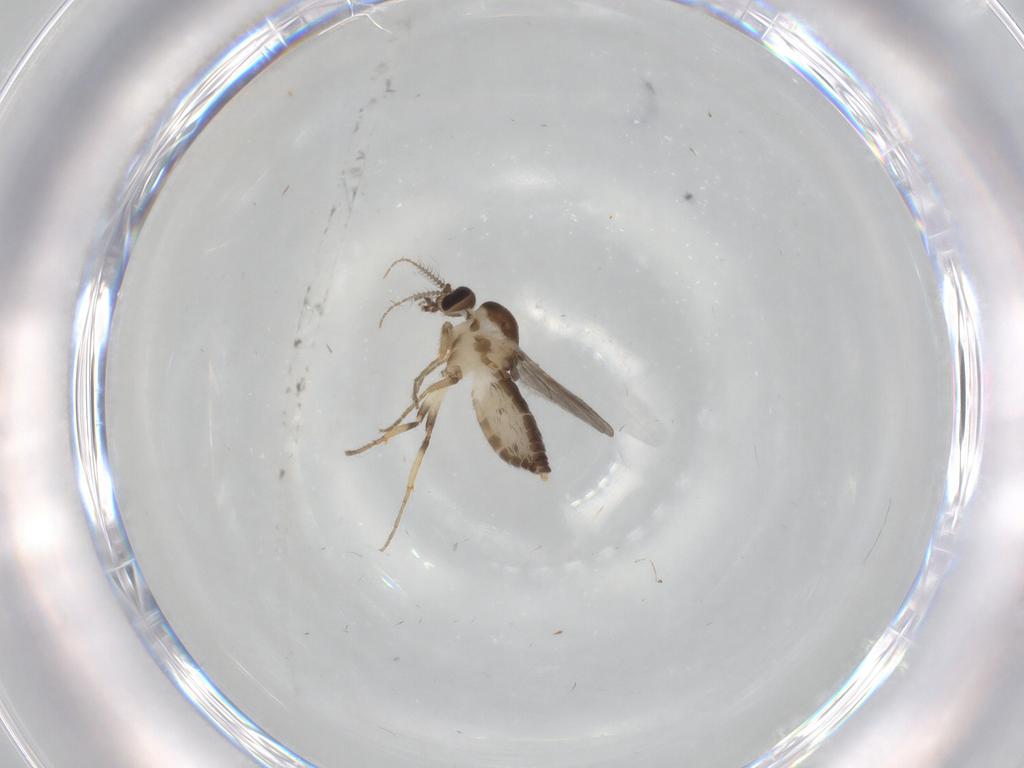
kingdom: Animalia
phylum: Arthropoda
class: Insecta
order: Diptera
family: Ceratopogonidae
